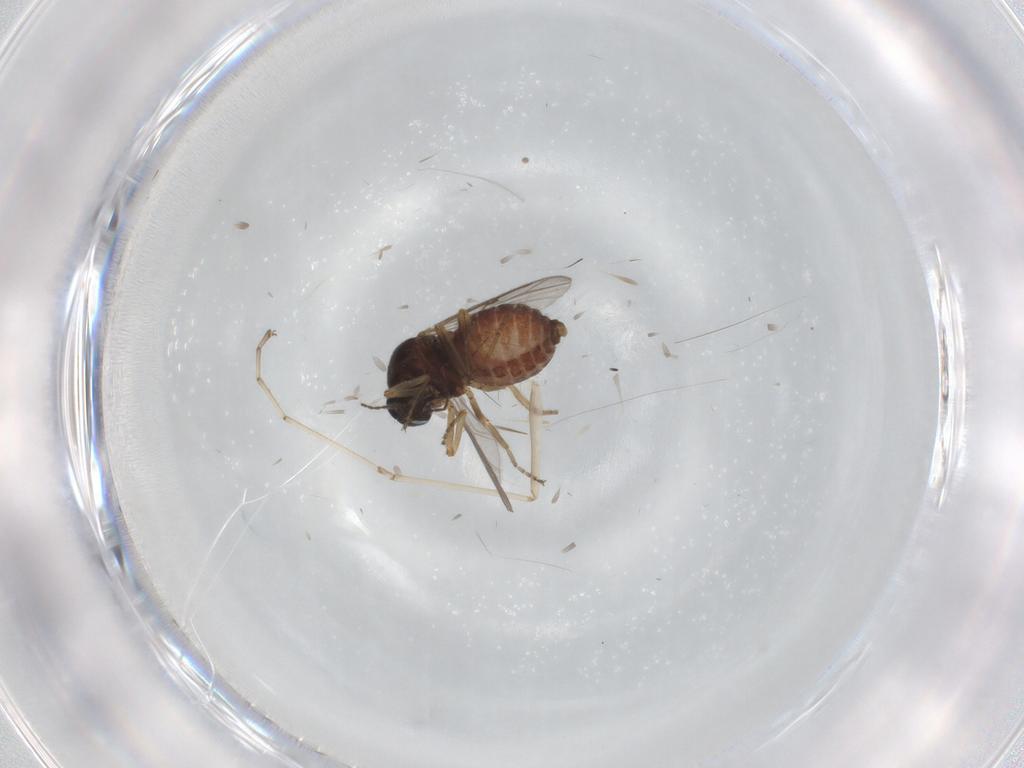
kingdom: Animalia
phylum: Arthropoda
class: Insecta
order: Diptera
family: Ceratopogonidae
